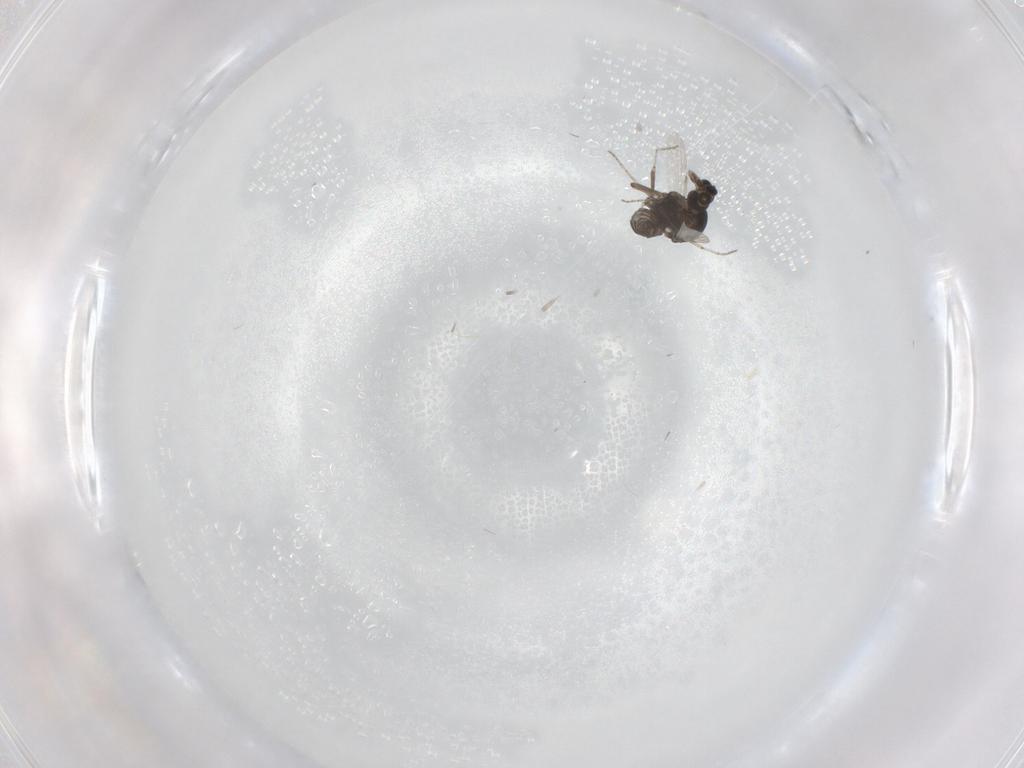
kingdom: Animalia
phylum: Arthropoda
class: Insecta
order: Diptera
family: Ceratopogonidae
